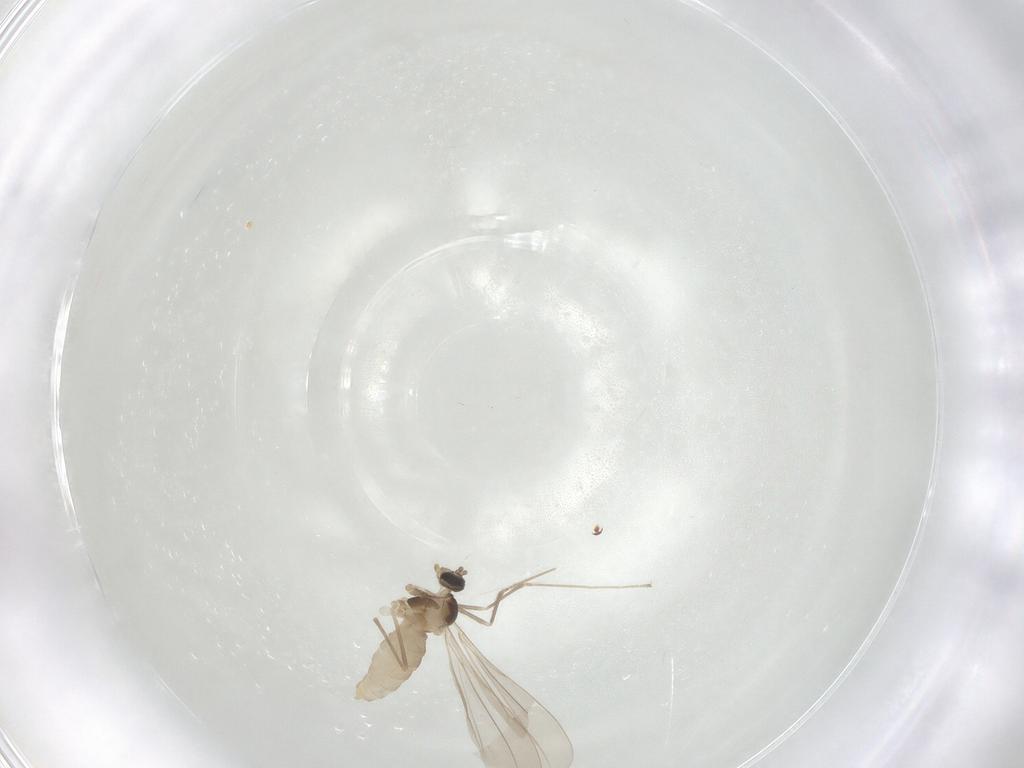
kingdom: Animalia
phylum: Arthropoda
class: Insecta
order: Diptera
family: Cecidomyiidae
